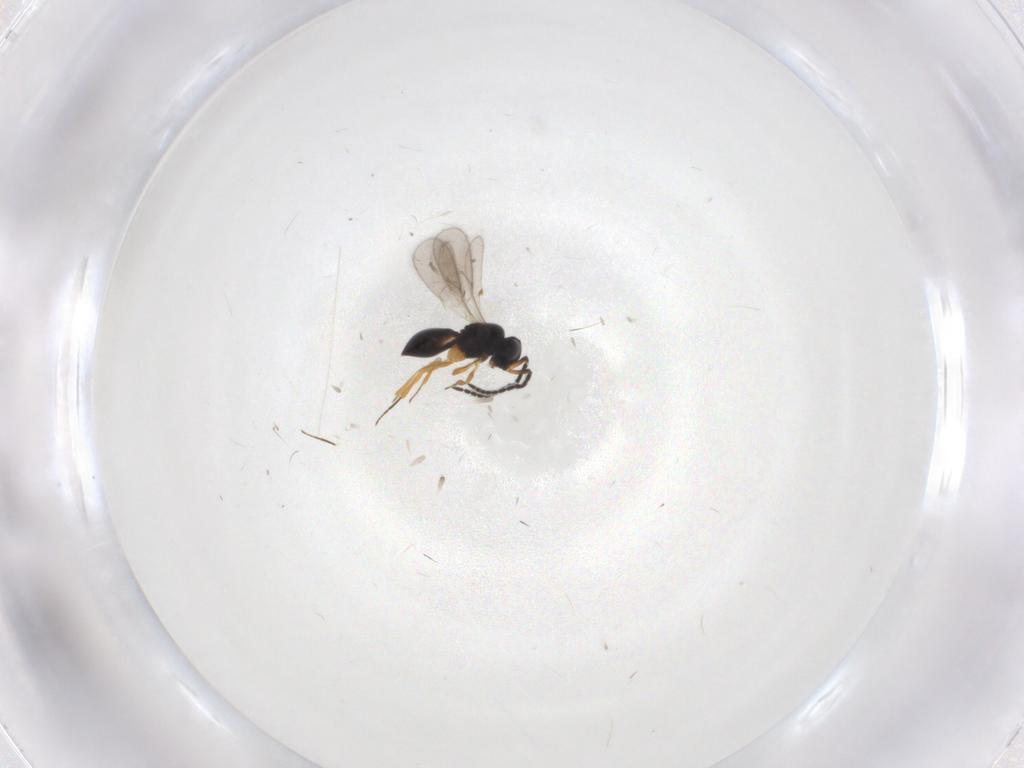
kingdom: Animalia
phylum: Arthropoda
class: Insecta
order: Hymenoptera
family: Scelionidae
